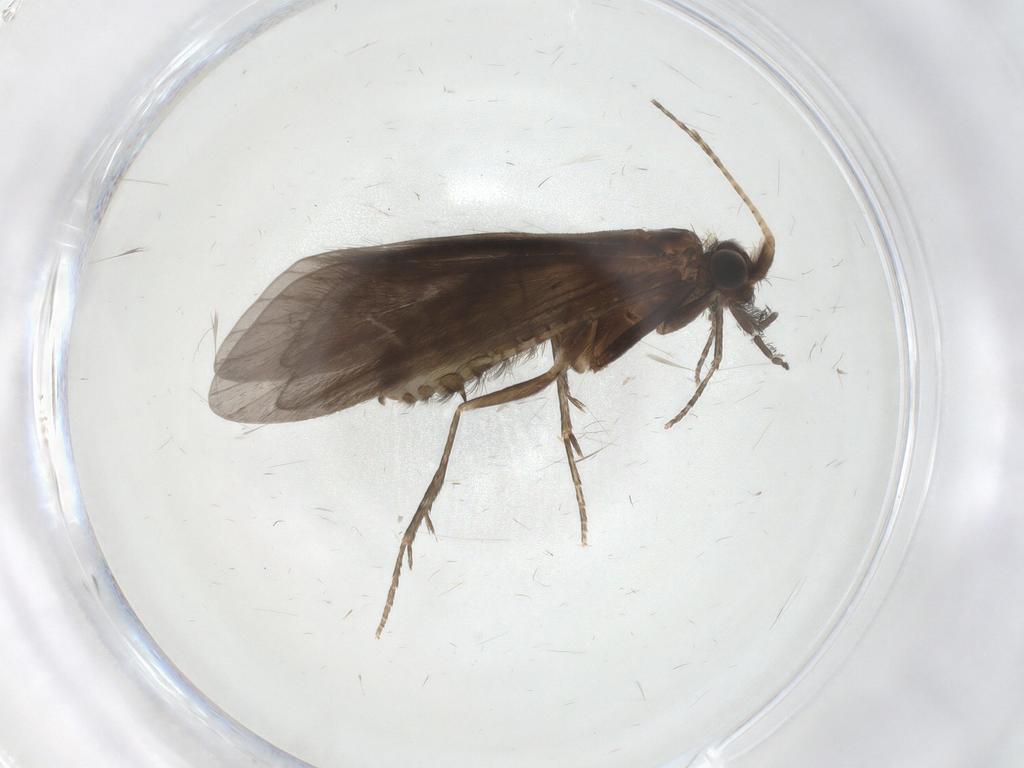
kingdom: Animalia
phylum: Arthropoda
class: Insecta
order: Trichoptera
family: Helicopsychidae
